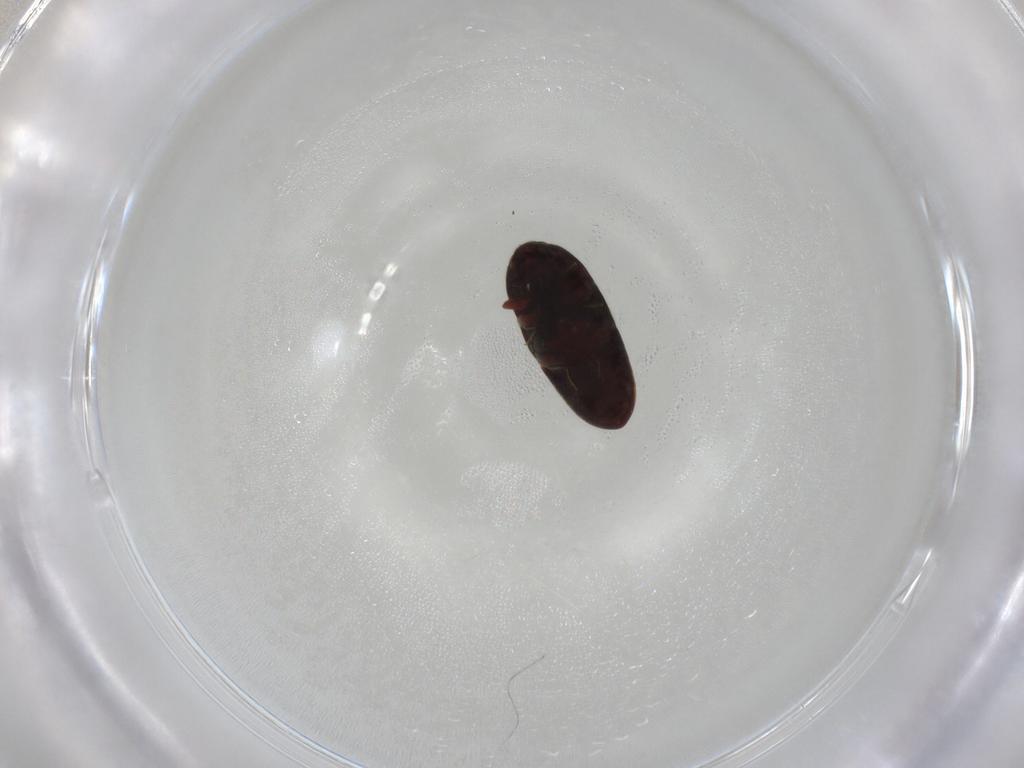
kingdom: Animalia
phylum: Arthropoda
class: Insecta
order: Coleoptera
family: Throscidae
